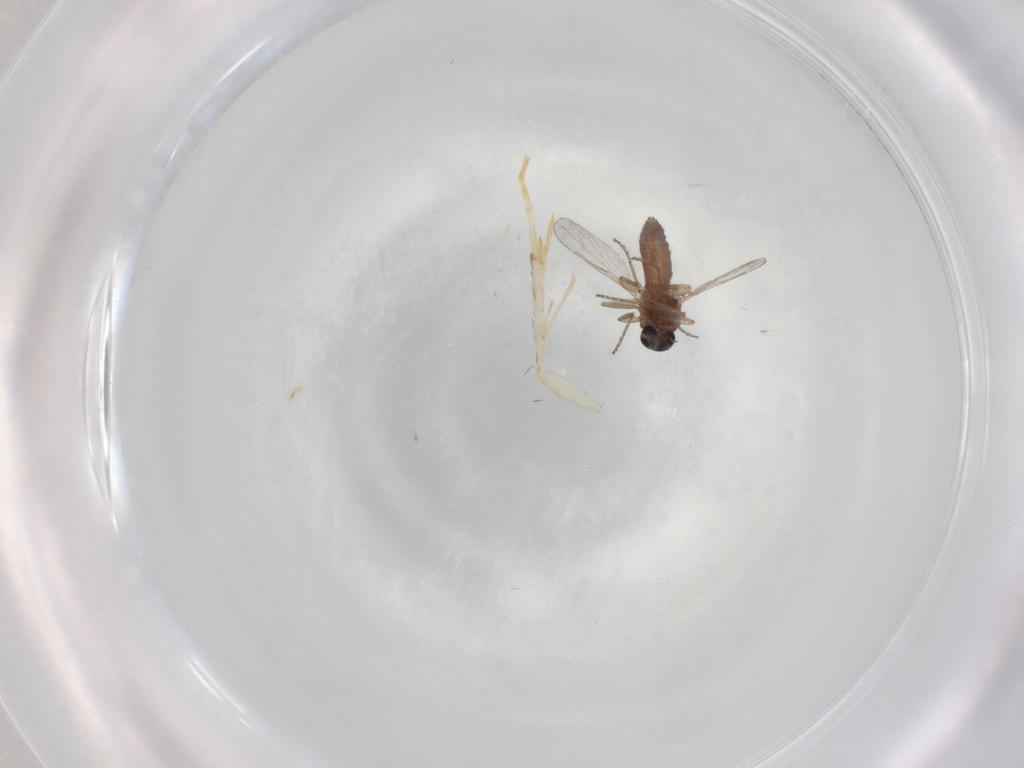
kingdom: Animalia
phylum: Arthropoda
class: Insecta
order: Diptera
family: Ceratopogonidae
